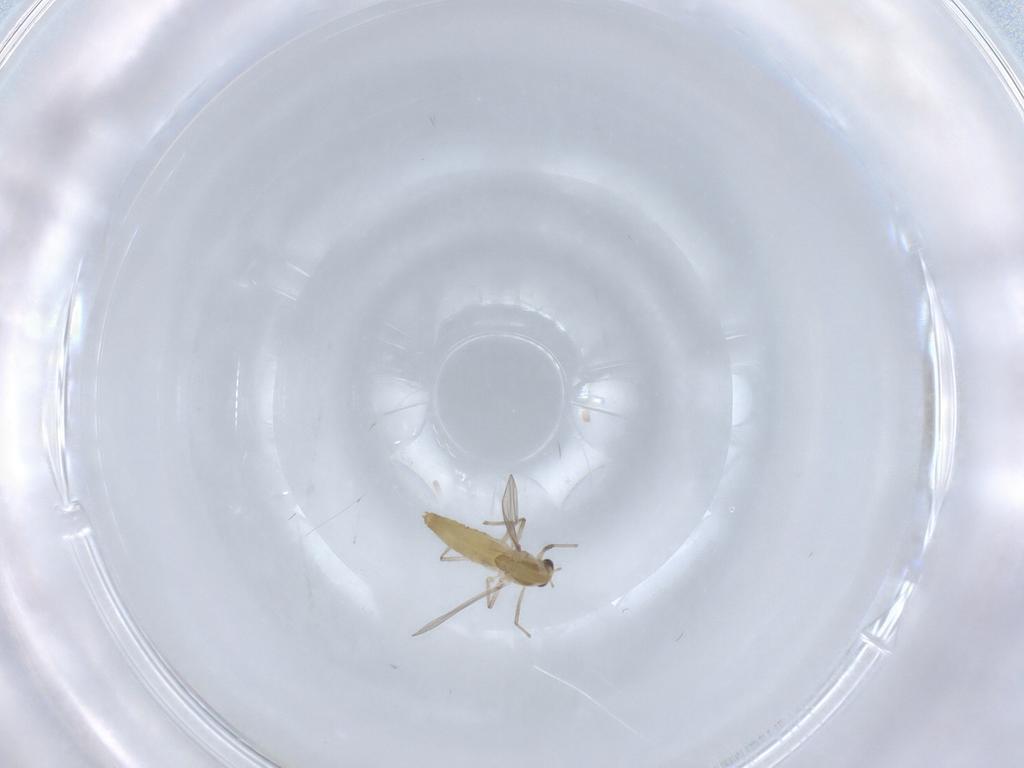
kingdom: Animalia
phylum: Arthropoda
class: Insecta
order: Diptera
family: Chironomidae
